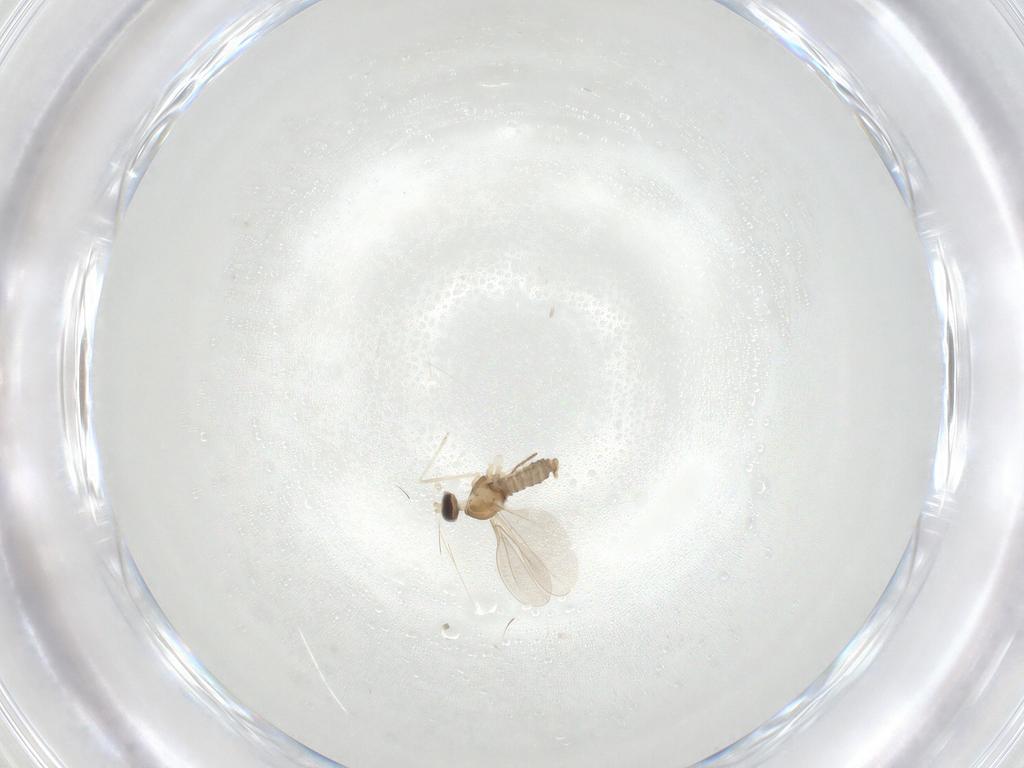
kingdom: Animalia
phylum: Arthropoda
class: Insecta
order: Diptera
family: Cecidomyiidae
